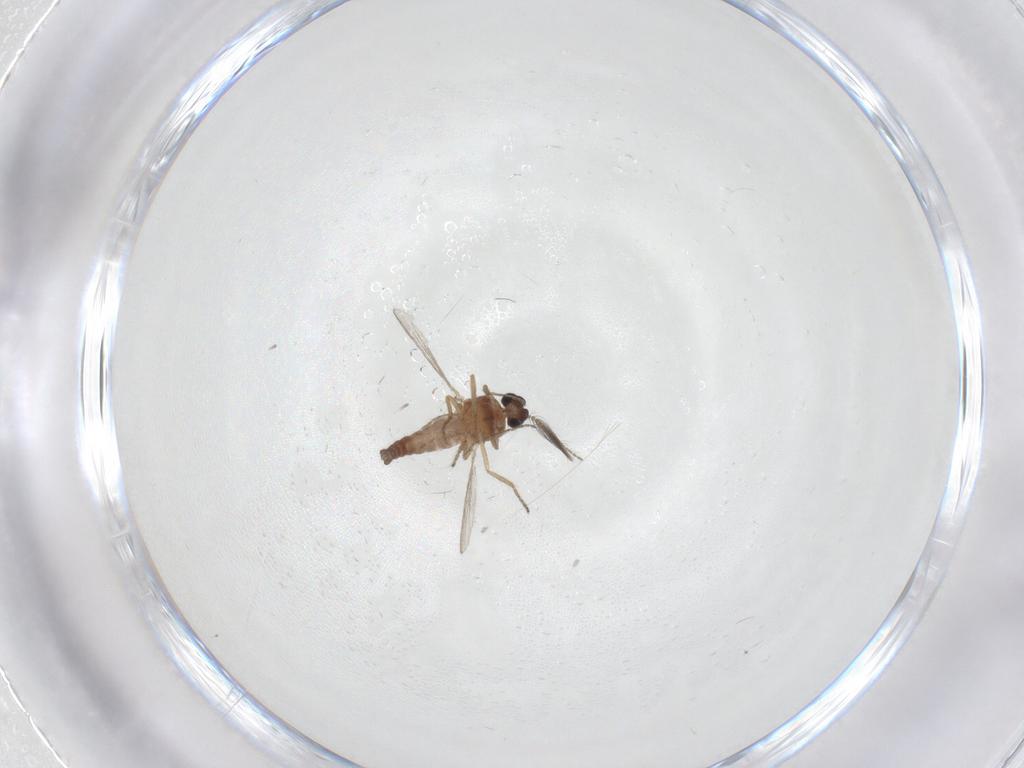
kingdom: Animalia
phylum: Arthropoda
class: Insecta
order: Diptera
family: Ceratopogonidae
